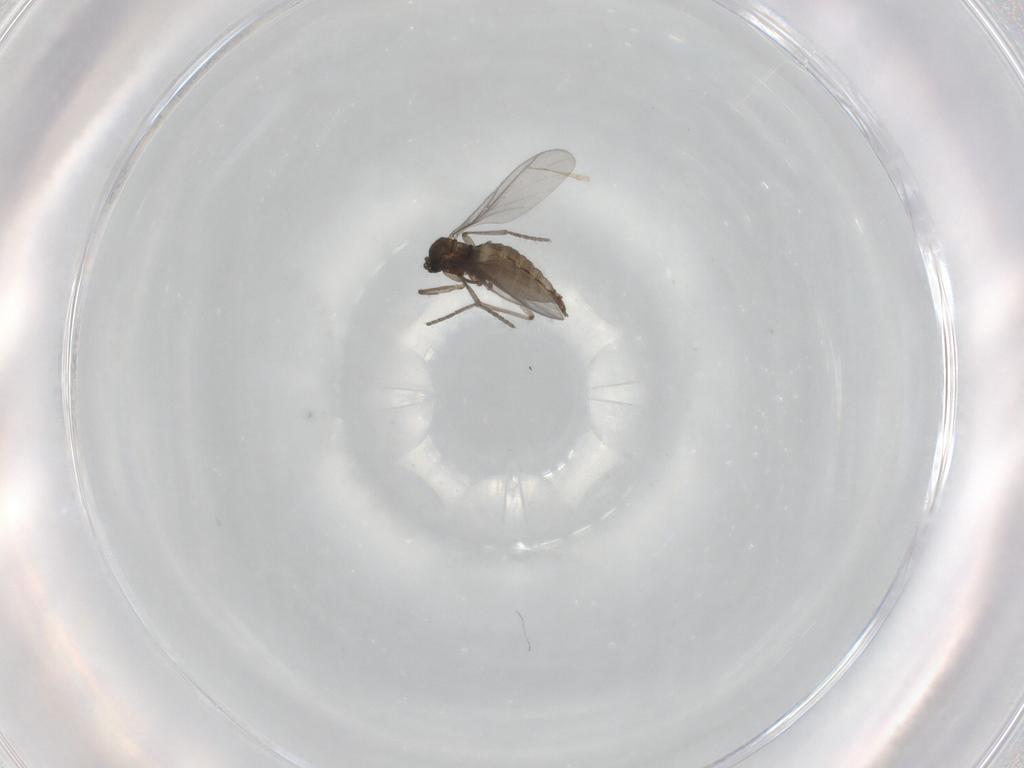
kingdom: Animalia
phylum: Arthropoda
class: Insecta
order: Diptera
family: Sciaridae
